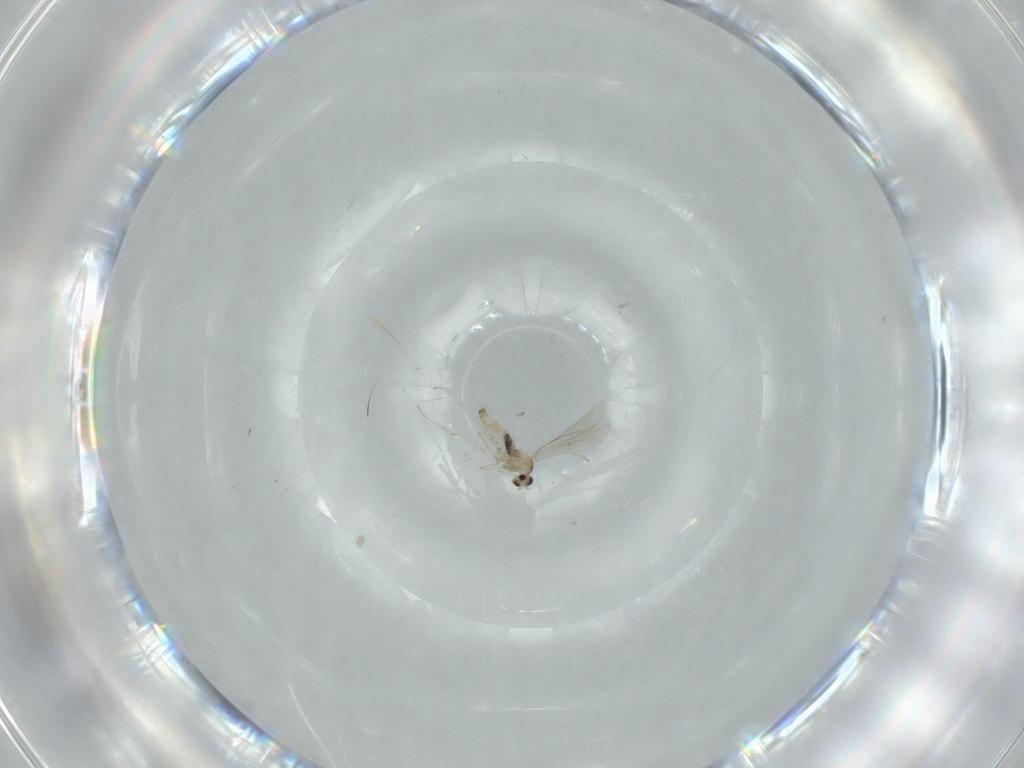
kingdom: Animalia
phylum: Arthropoda
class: Insecta
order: Diptera
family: Cecidomyiidae
